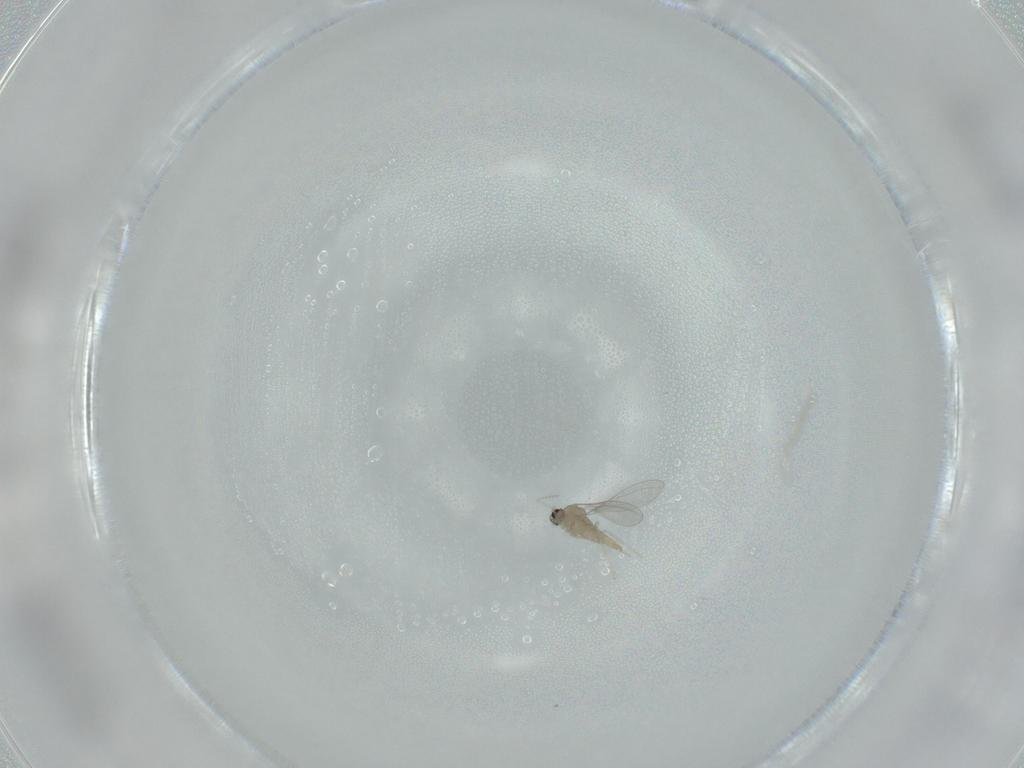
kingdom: Animalia
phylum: Arthropoda
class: Insecta
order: Diptera
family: Cecidomyiidae
